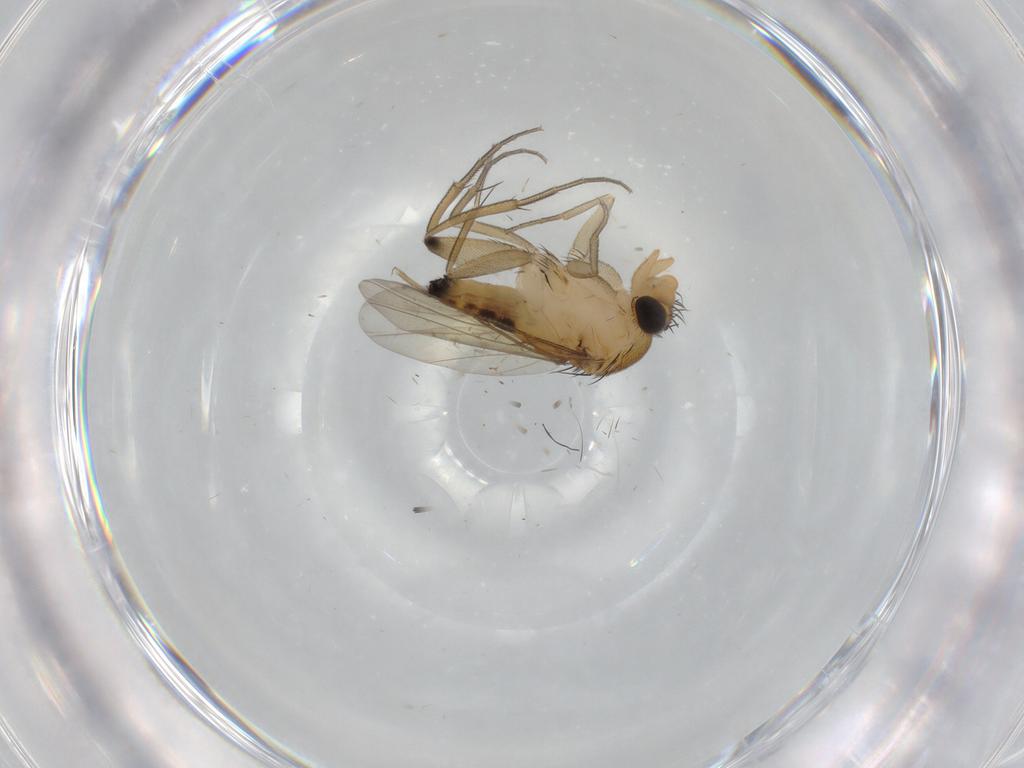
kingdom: Animalia
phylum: Arthropoda
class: Insecta
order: Diptera
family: Phoridae
